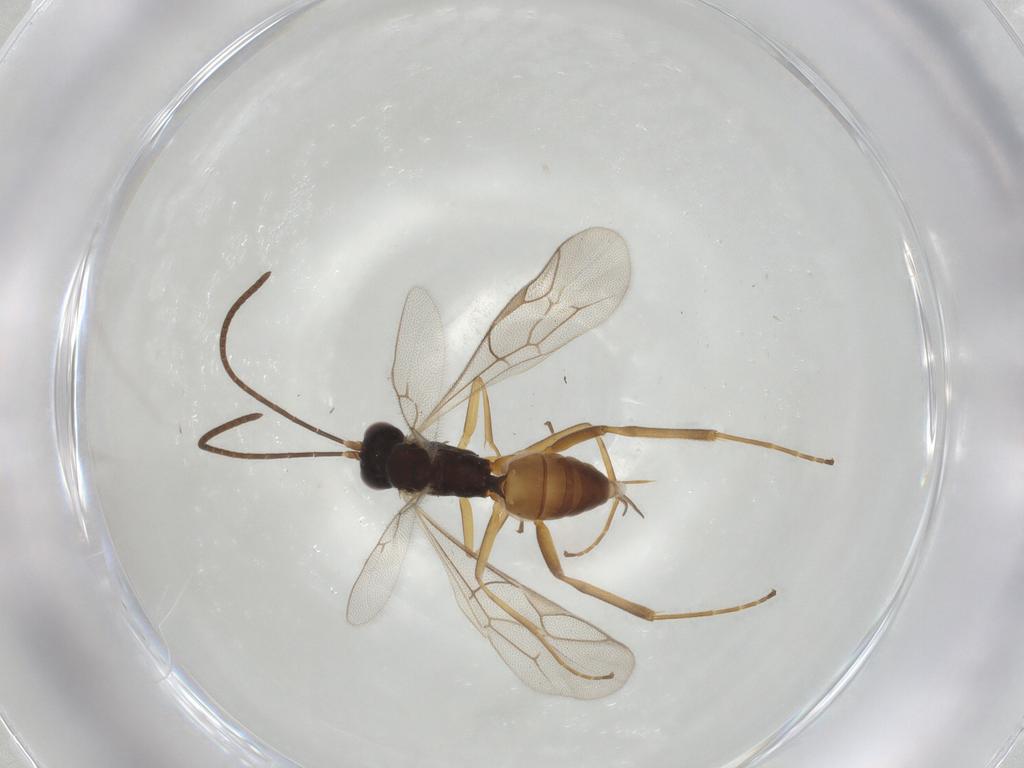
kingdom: Animalia
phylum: Arthropoda
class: Insecta
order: Hymenoptera
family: Ichneumonidae
